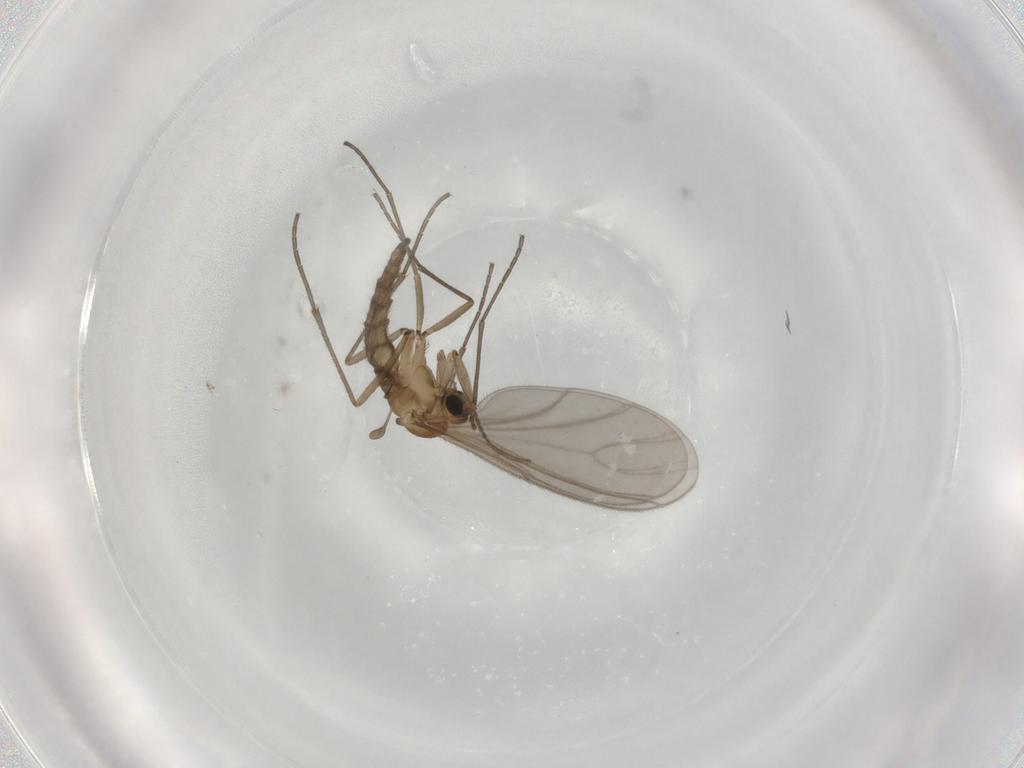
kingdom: Animalia
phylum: Arthropoda
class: Insecta
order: Diptera
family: Sciaridae
